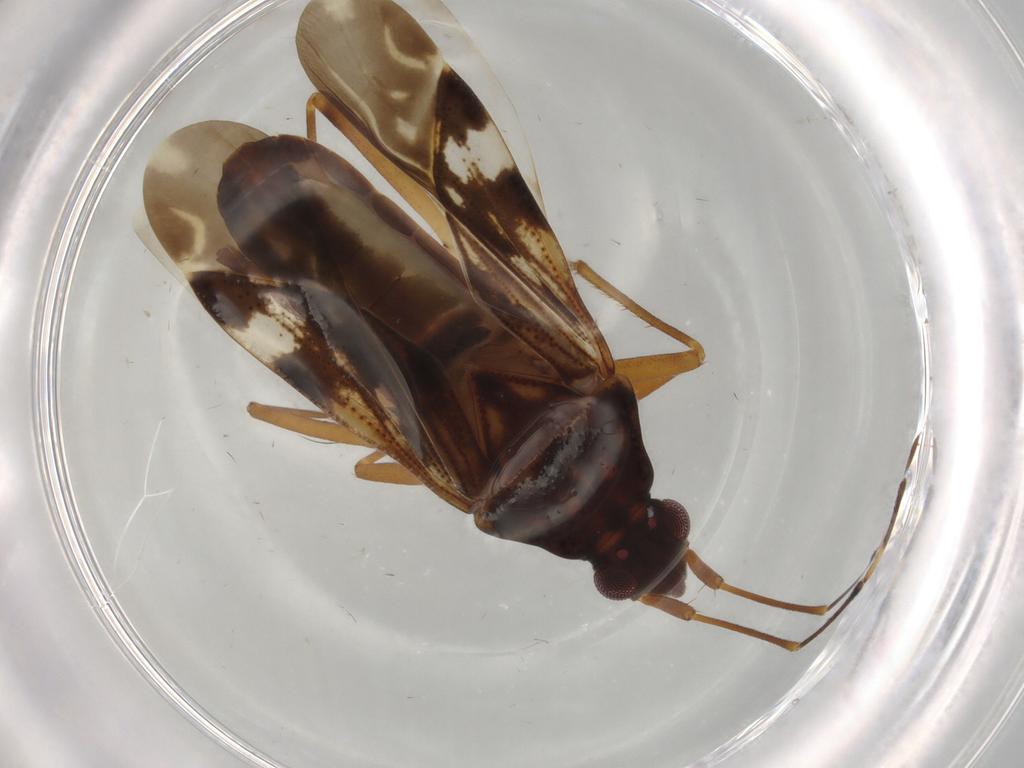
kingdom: Animalia
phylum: Arthropoda
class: Insecta
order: Hemiptera
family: Rhyparochromidae
